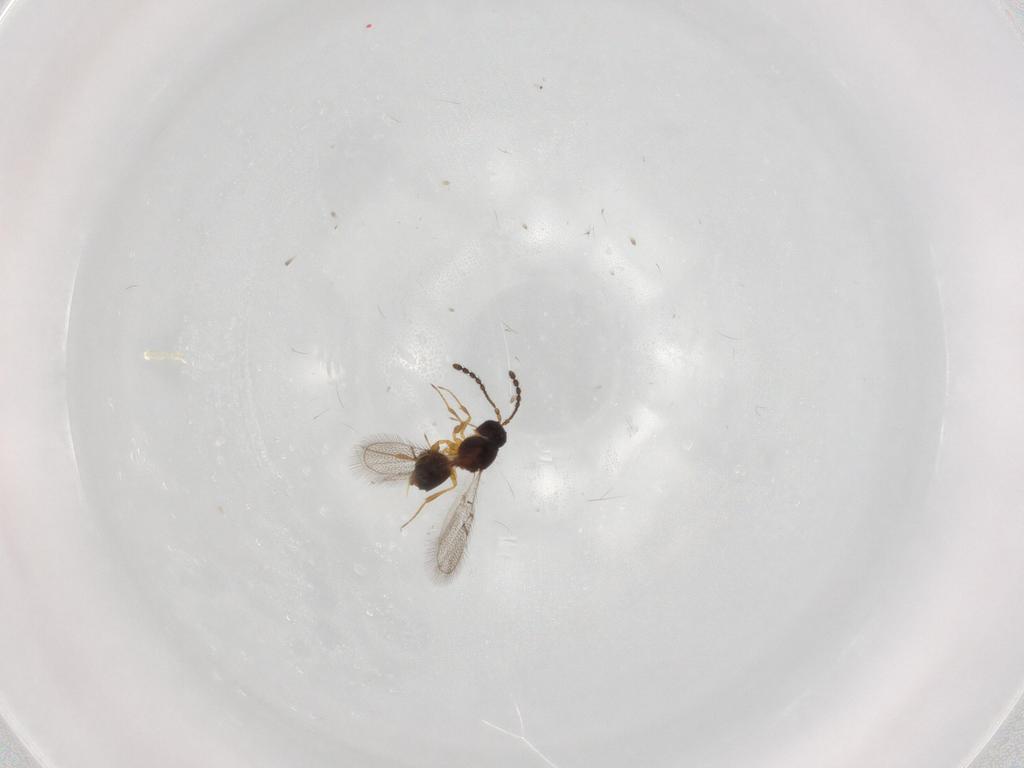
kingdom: Animalia
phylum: Arthropoda
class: Insecta
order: Hymenoptera
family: Figitidae
